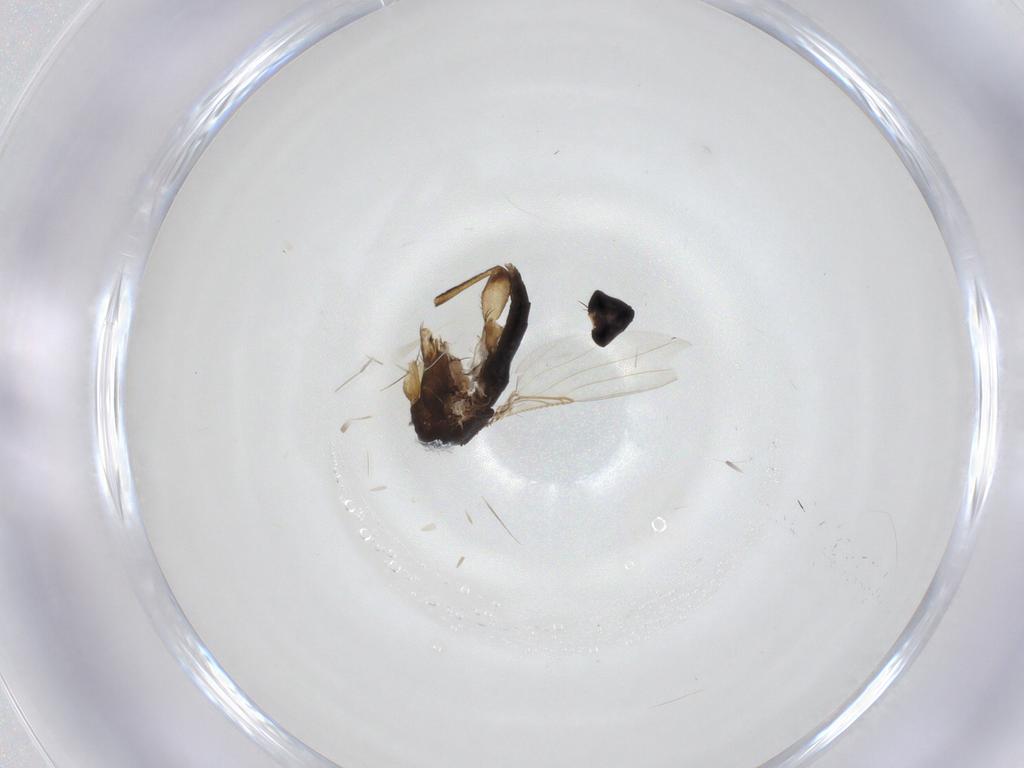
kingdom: Animalia
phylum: Arthropoda
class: Insecta
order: Diptera
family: Phoridae
